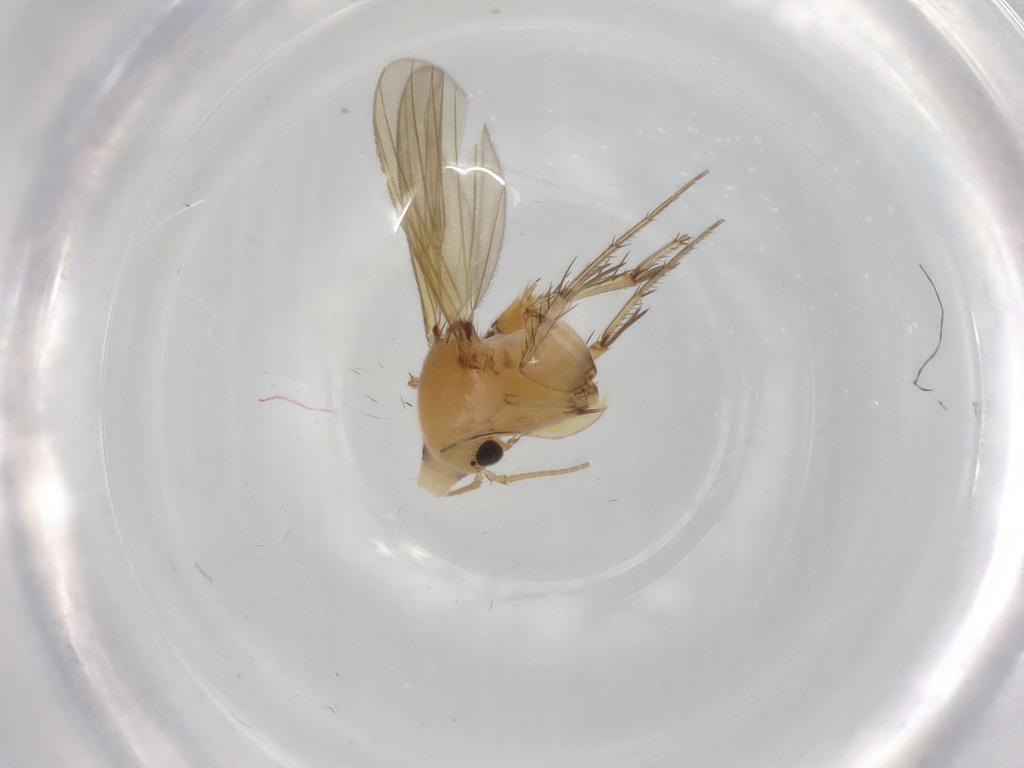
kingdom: Animalia
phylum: Arthropoda
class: Insecta
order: Diptera
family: Mycetophilidae
